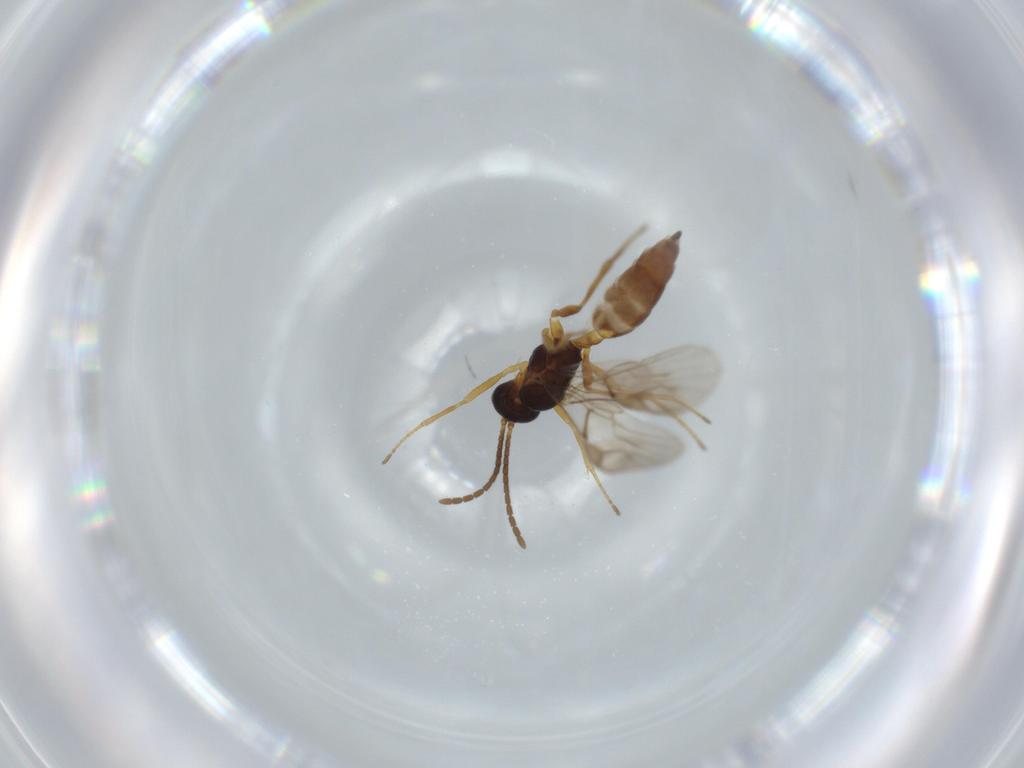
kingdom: Animalia
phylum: Arthropoda
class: Insecta
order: Hymenoptera
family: Braconidae
